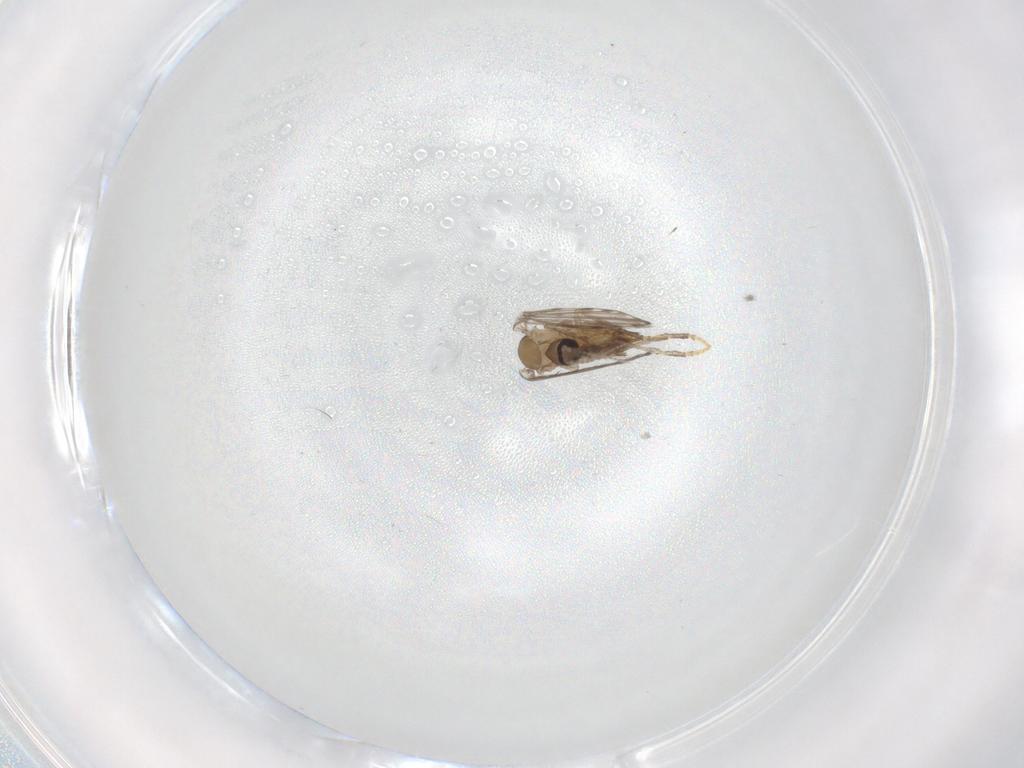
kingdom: Animalia
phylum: Arthropoda
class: Insecta
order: Diptera
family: Psychodidae
